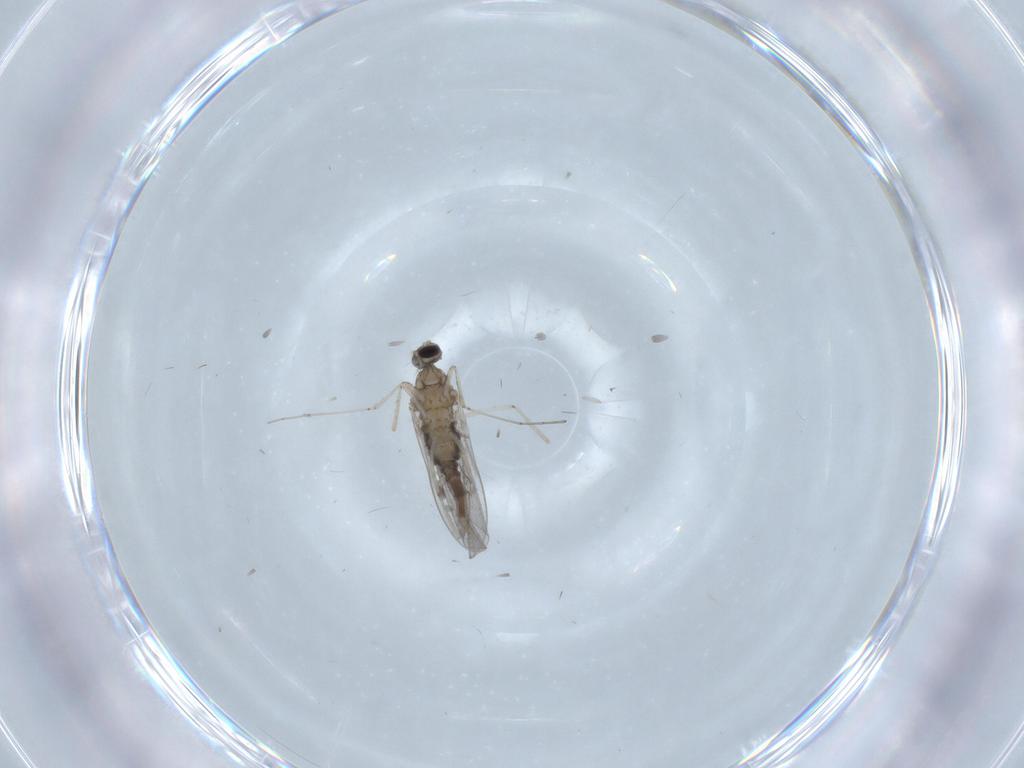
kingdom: Animalia
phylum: Arthropoda
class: Insecta
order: Diptera
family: Cecidomyiidae
